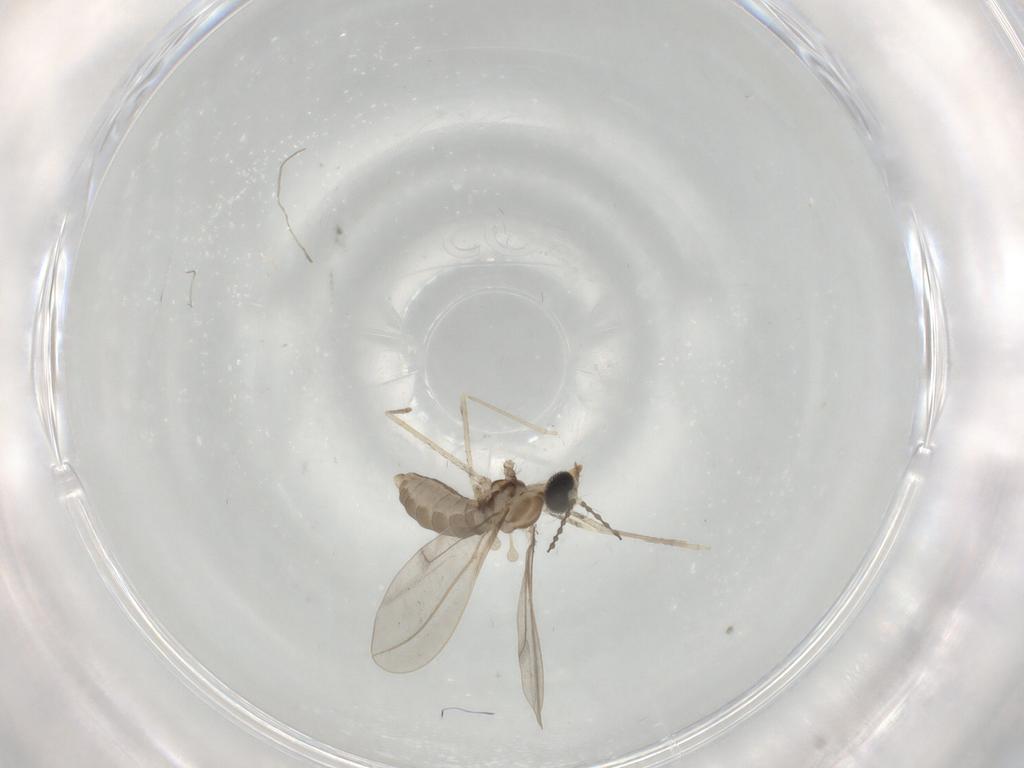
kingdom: Animalia
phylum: Arthropoda
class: Insecta
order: Diptera
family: Cecidomyiidae
